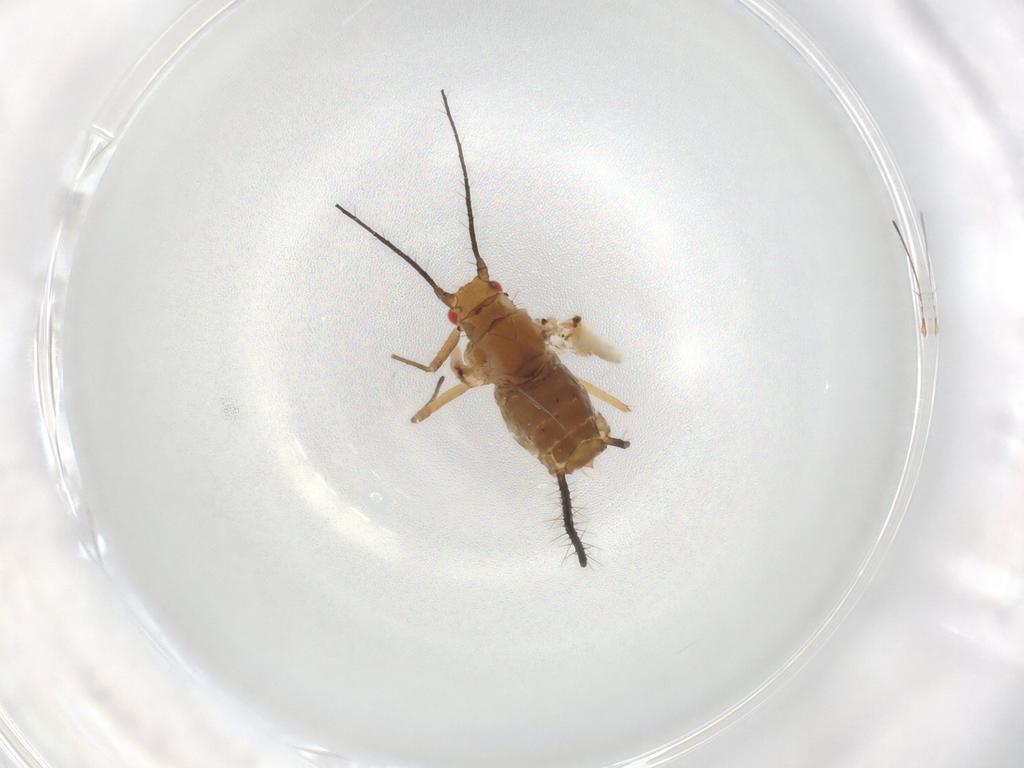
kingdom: Animalia
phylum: Arthropoda
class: Insecta
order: Hemiptera
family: Aphididae
